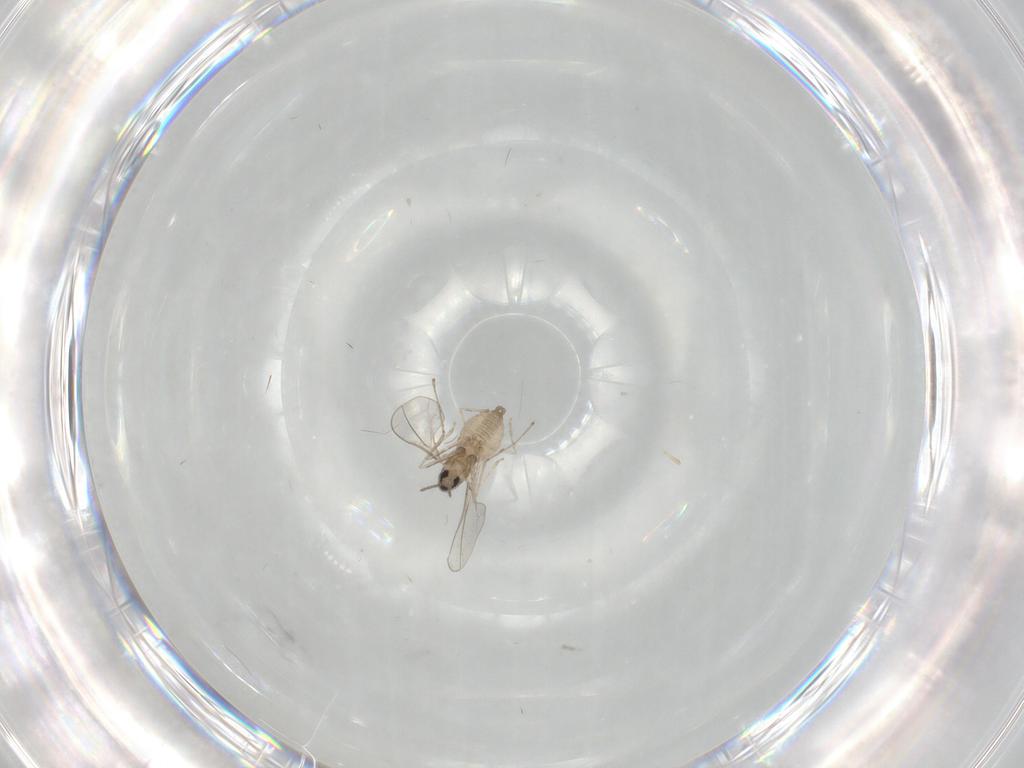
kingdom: Animalia
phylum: Arthropoda
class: Insecta
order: Diptera
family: Cecidomyiidae
